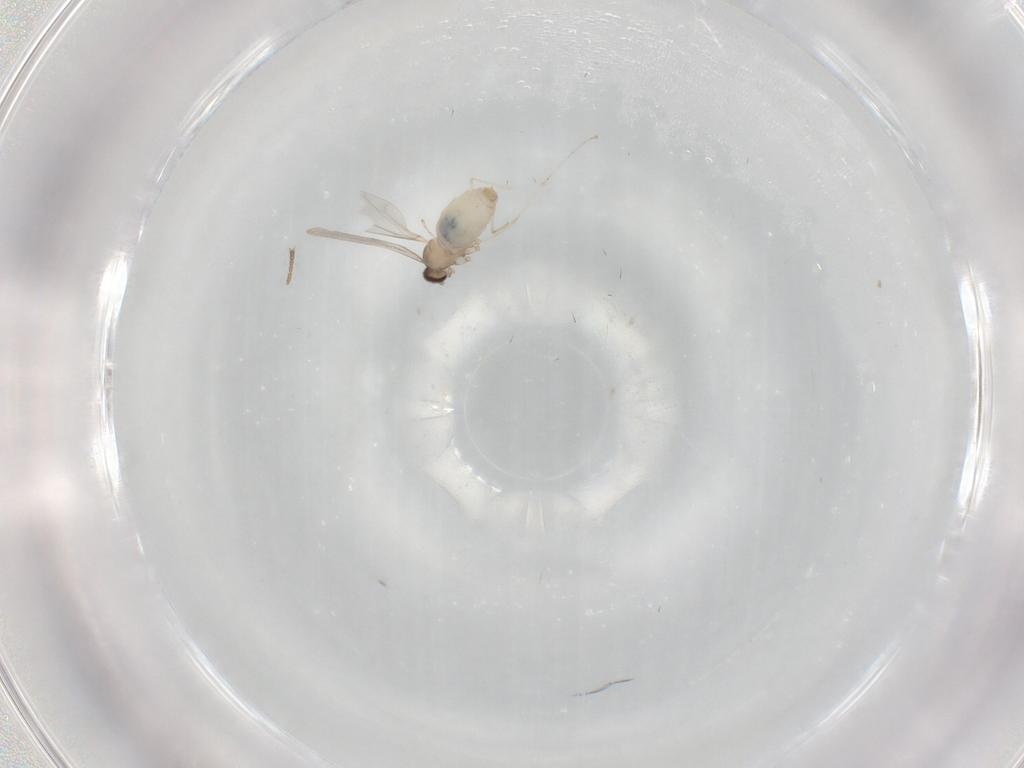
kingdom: Animalia
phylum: Arthropoda
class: Insecta
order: Diptera
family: Cecidomyiidae
